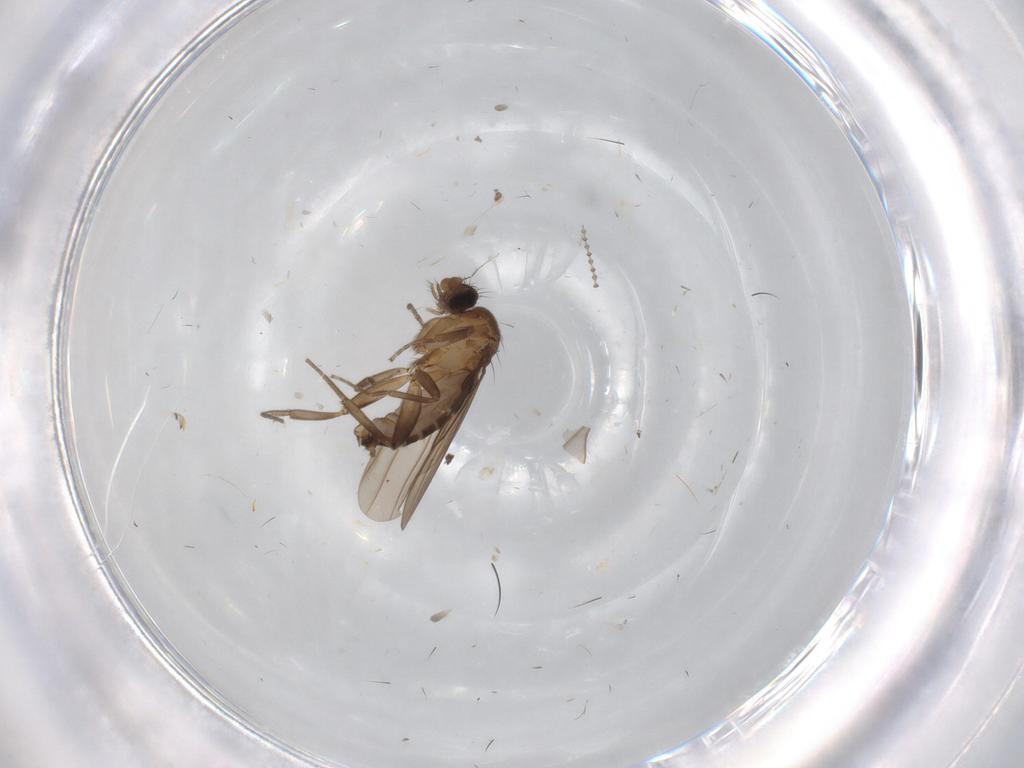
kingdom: Animalia
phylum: Arthropoda
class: Insecta
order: Diptera
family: Cecidomyiidae
